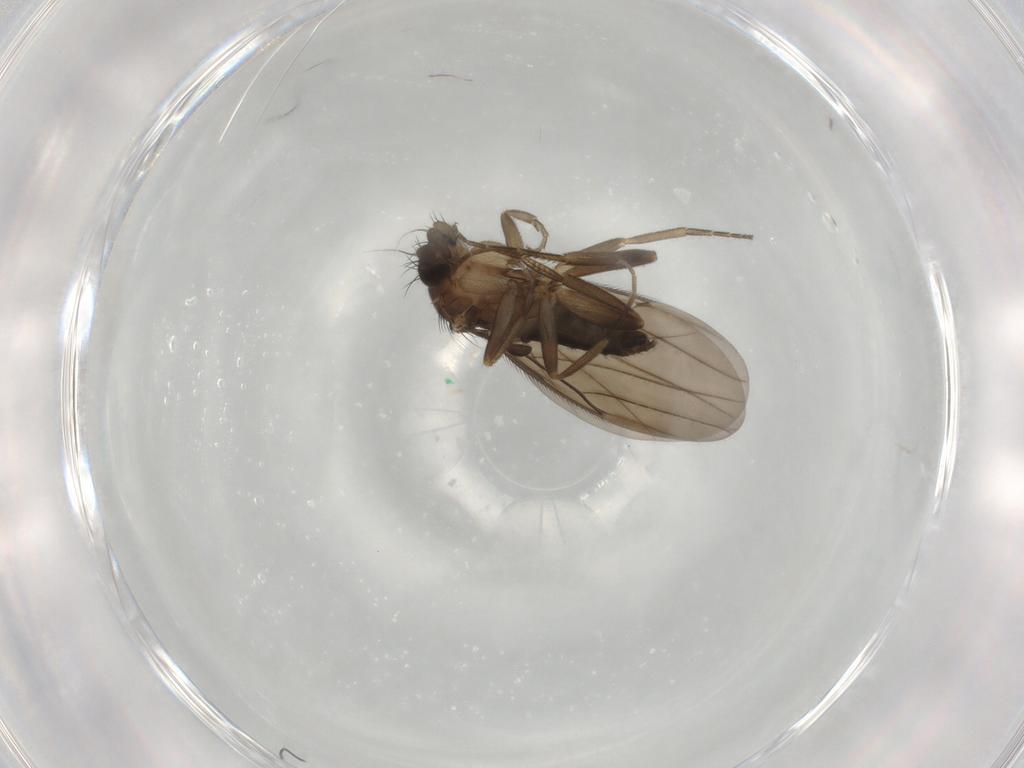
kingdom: Animalia
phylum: Arthropoda
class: Insecta
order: Diptera
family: Phoridae
